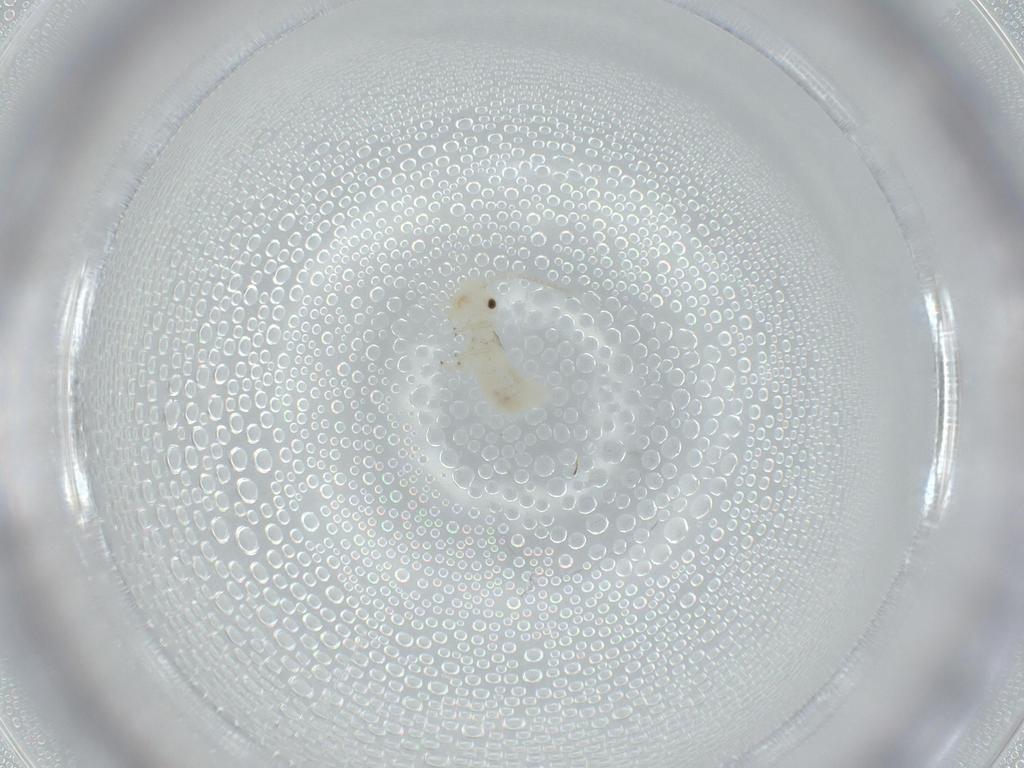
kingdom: Animalia
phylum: Arthropoda
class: Insecta
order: Psocodea
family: Caeciliusidae
